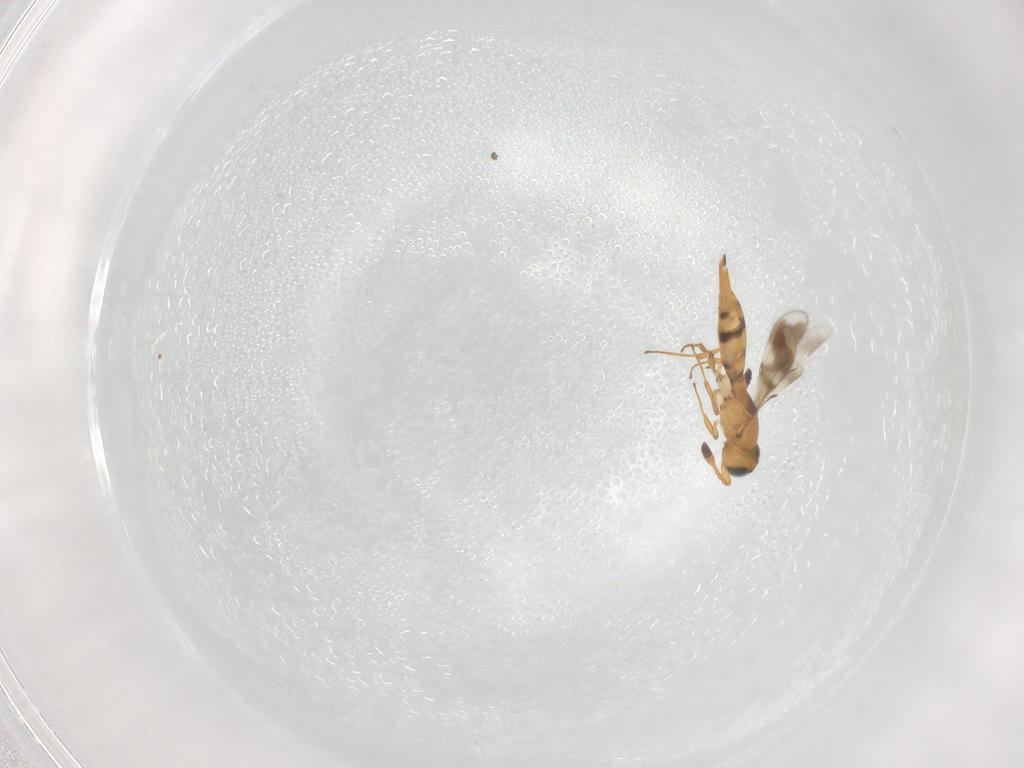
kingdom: Animalia
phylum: Arthropoda
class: Insecta
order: Hymenoptera
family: Scelionidae
